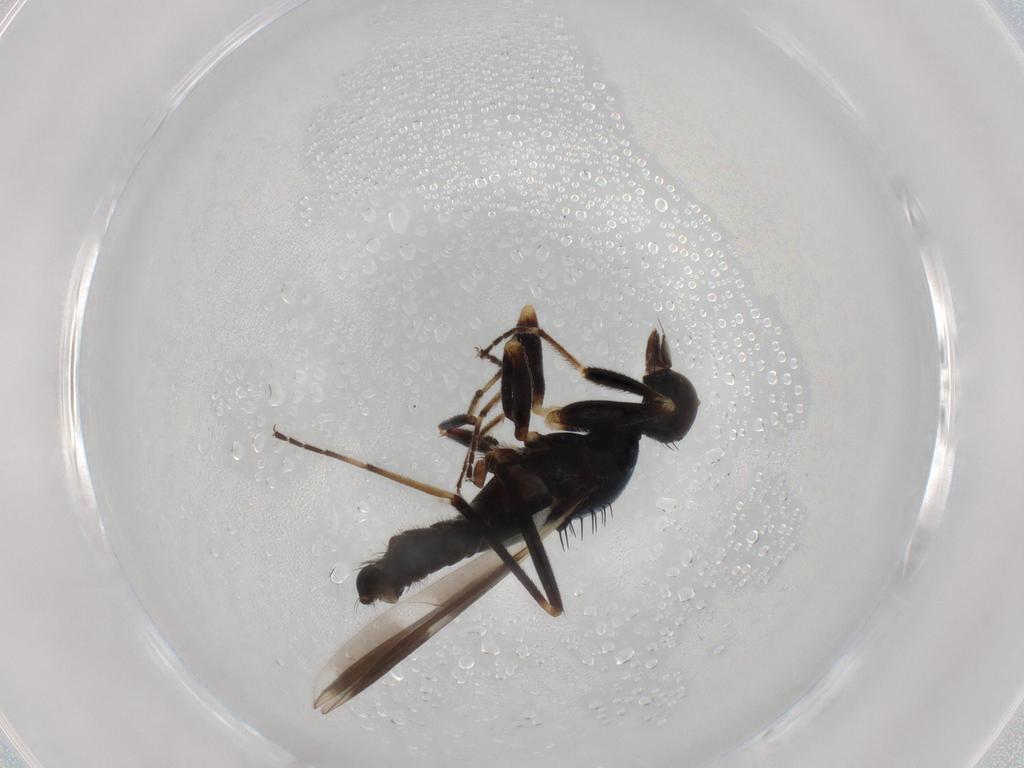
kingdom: Animalia
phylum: Arthropoda
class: Insecta
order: Diptera
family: Hybotidae
